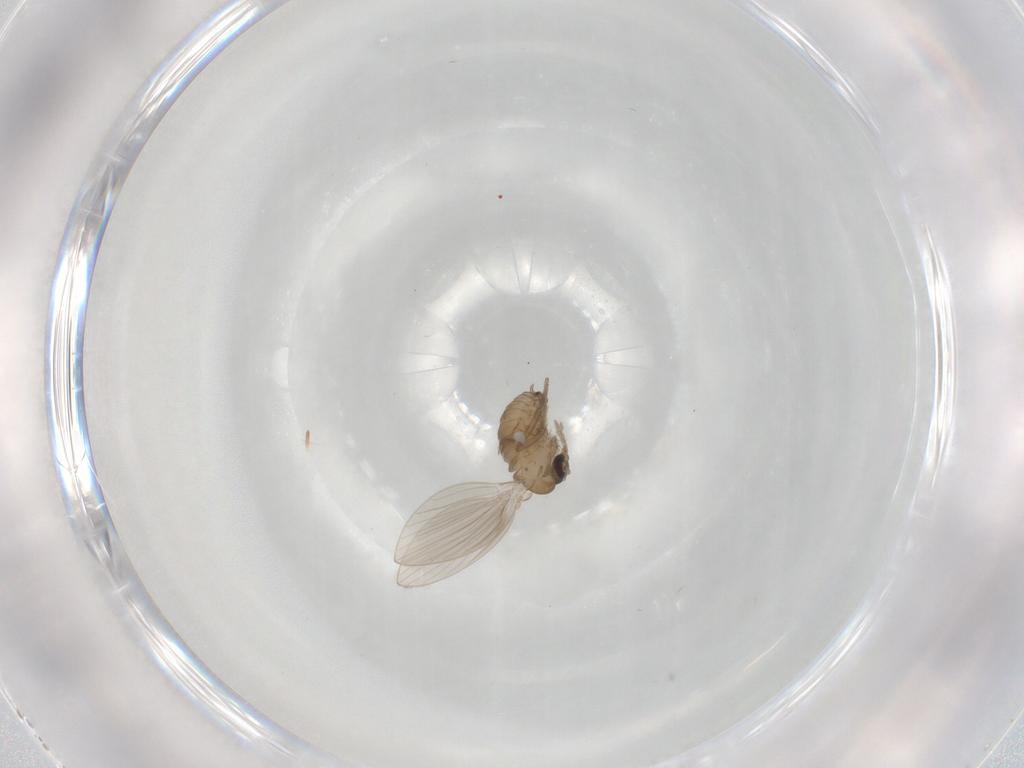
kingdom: Animalia
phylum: Arthropoda
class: Insecta
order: Diptera
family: Psychodidae
